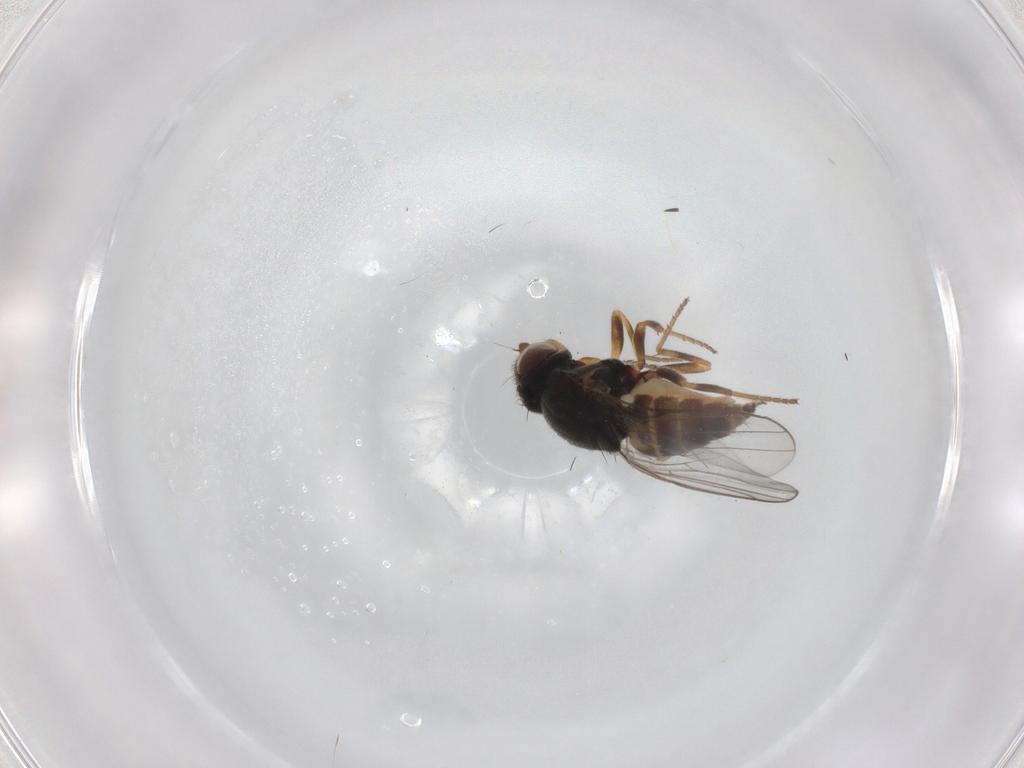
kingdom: Animalia
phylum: Arthropoda
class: Insecta
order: Diptera
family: Chloropidae
